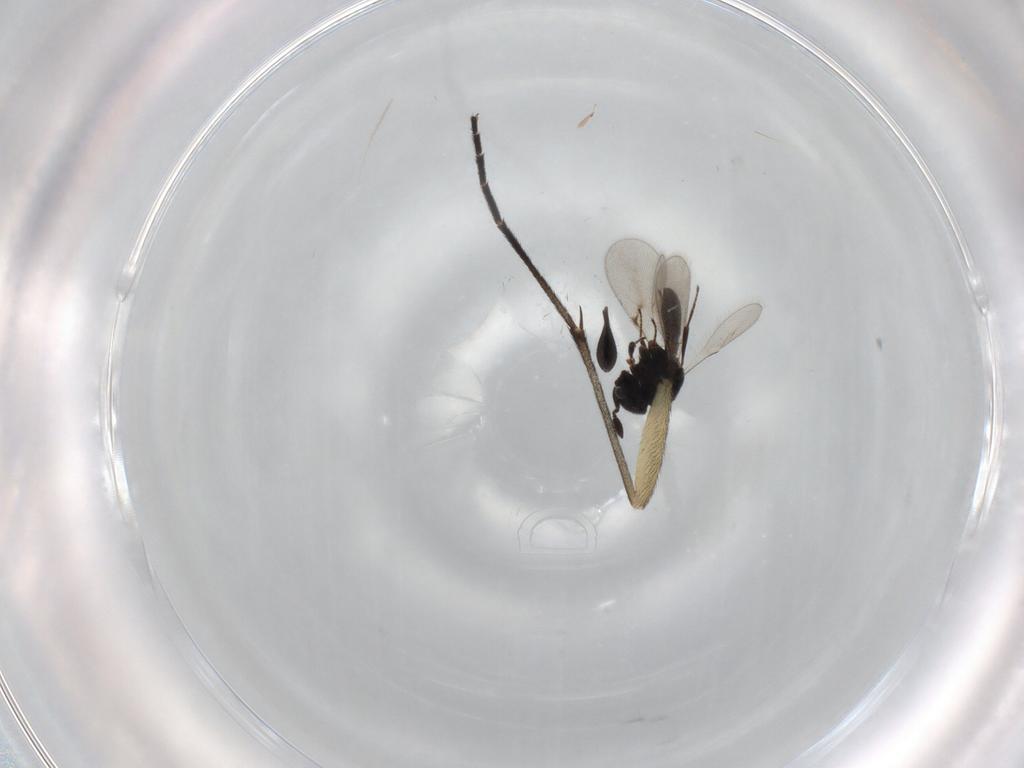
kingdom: Animalia
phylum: Arthropoda
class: Insecta
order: Hymenoptera
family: Scelionidae
